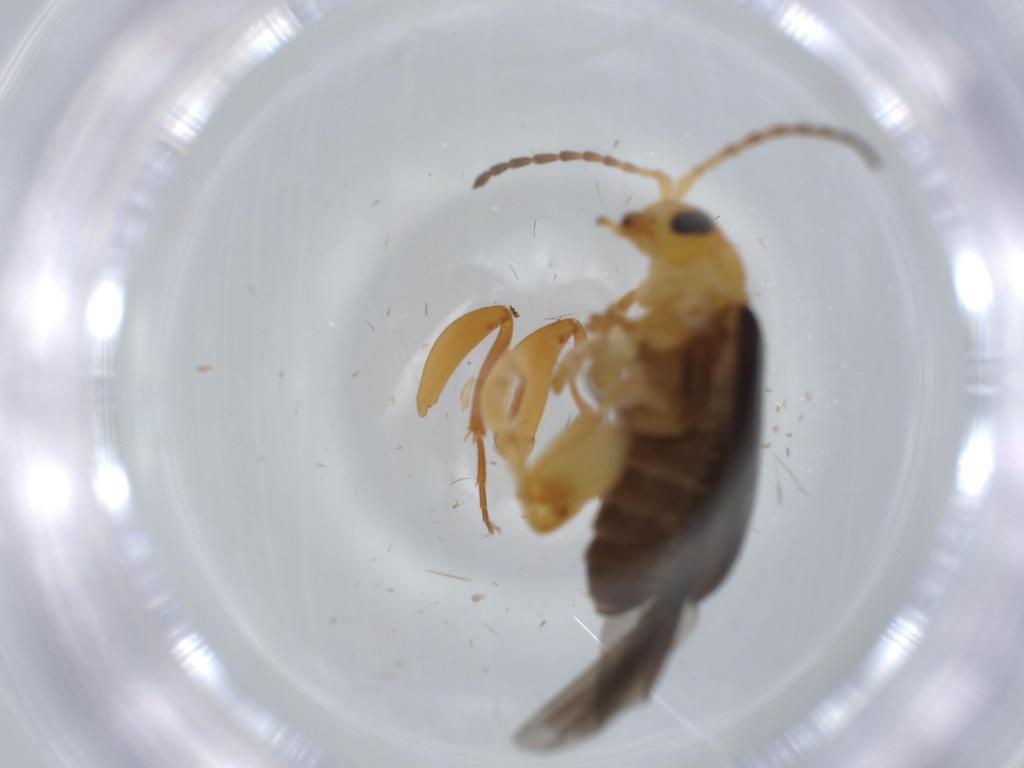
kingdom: Animalia
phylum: Arthropoda
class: Insecta
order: Coleoptera
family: Chrysomelidae
